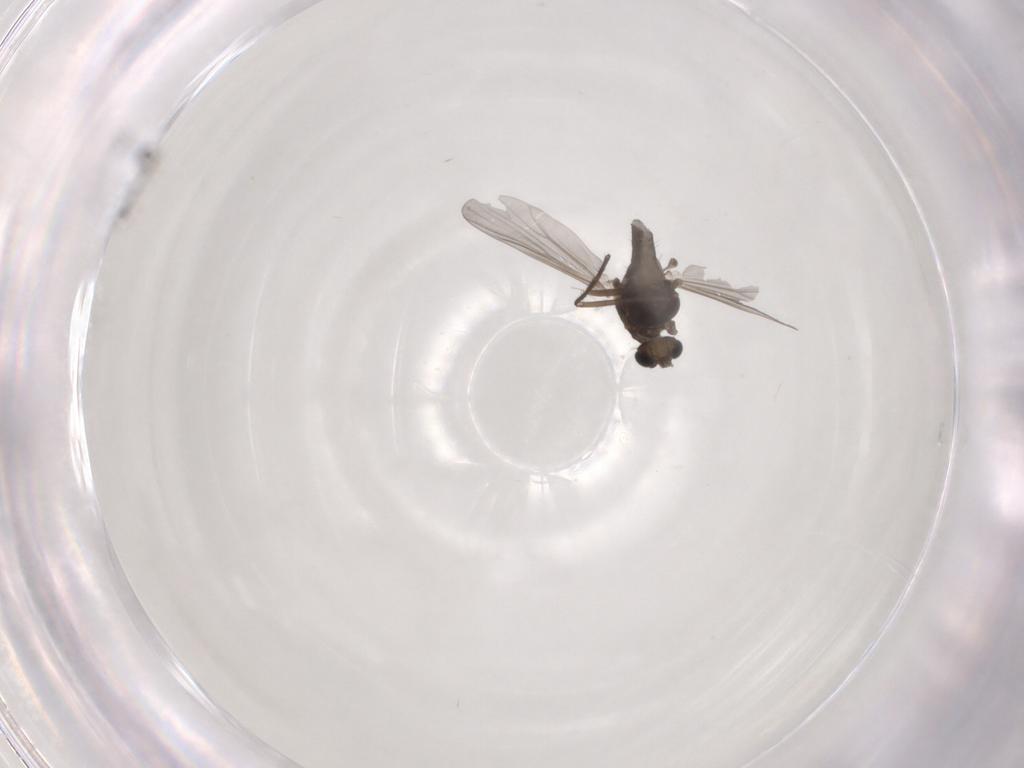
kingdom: Animalia
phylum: Arthropoda
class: Insecta
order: Diptera
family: Chironomidae
